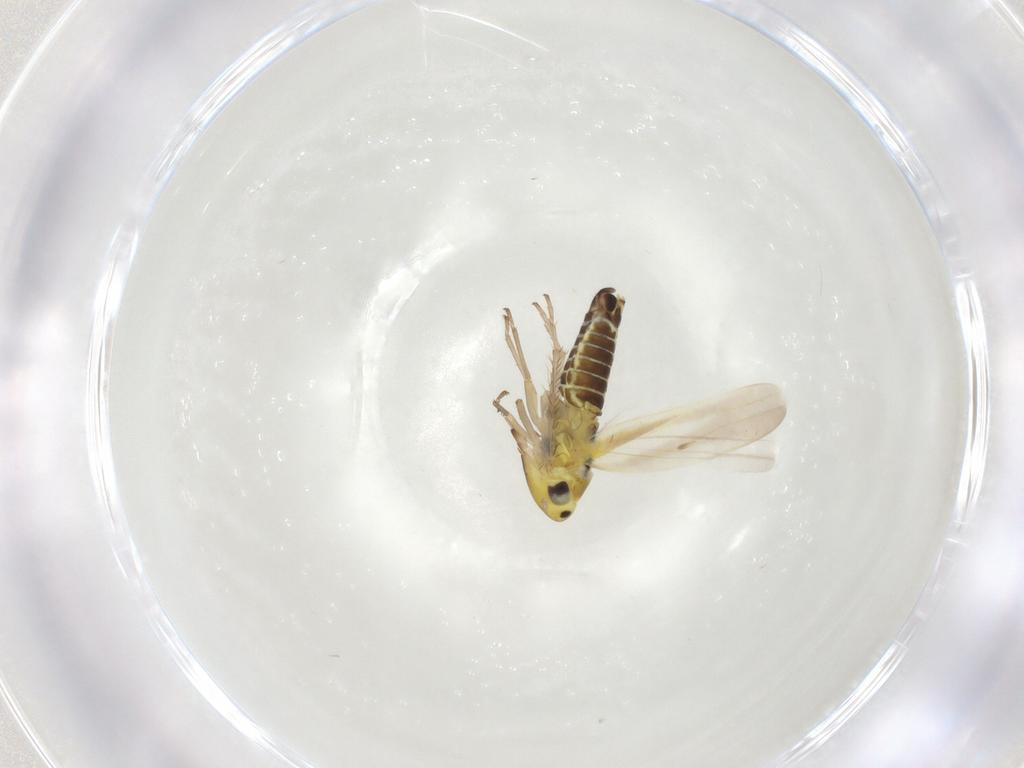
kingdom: Animalia
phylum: Arthropoda
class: Insecta
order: Hemiptera
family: Cicadellidae
